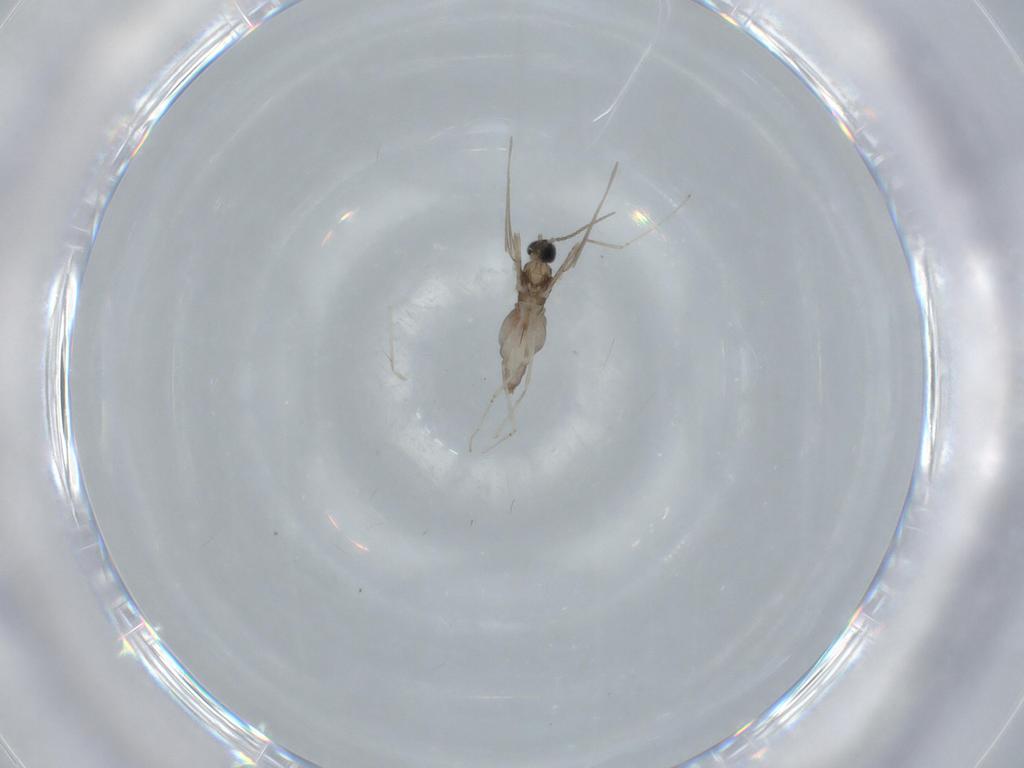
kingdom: Animalia
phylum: Arthropoda
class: Insecta
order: Diptera
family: Cecidomyiidae
